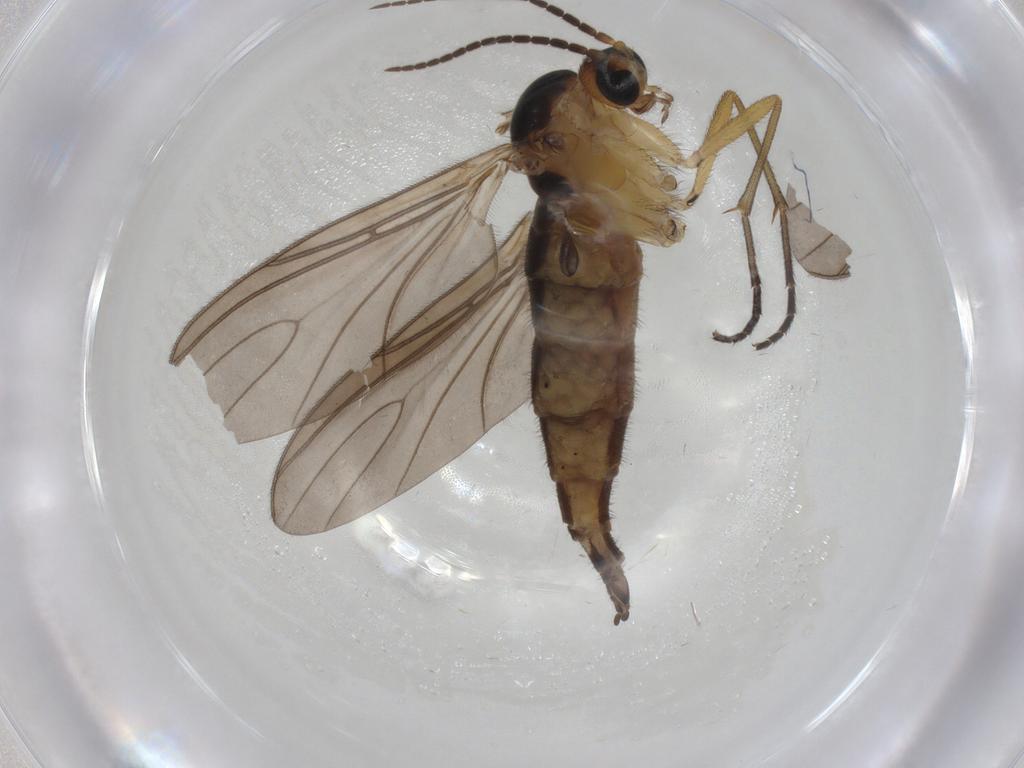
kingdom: Animalia
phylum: Arthropoda
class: Insecta
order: Diptera
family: Sciaridae
